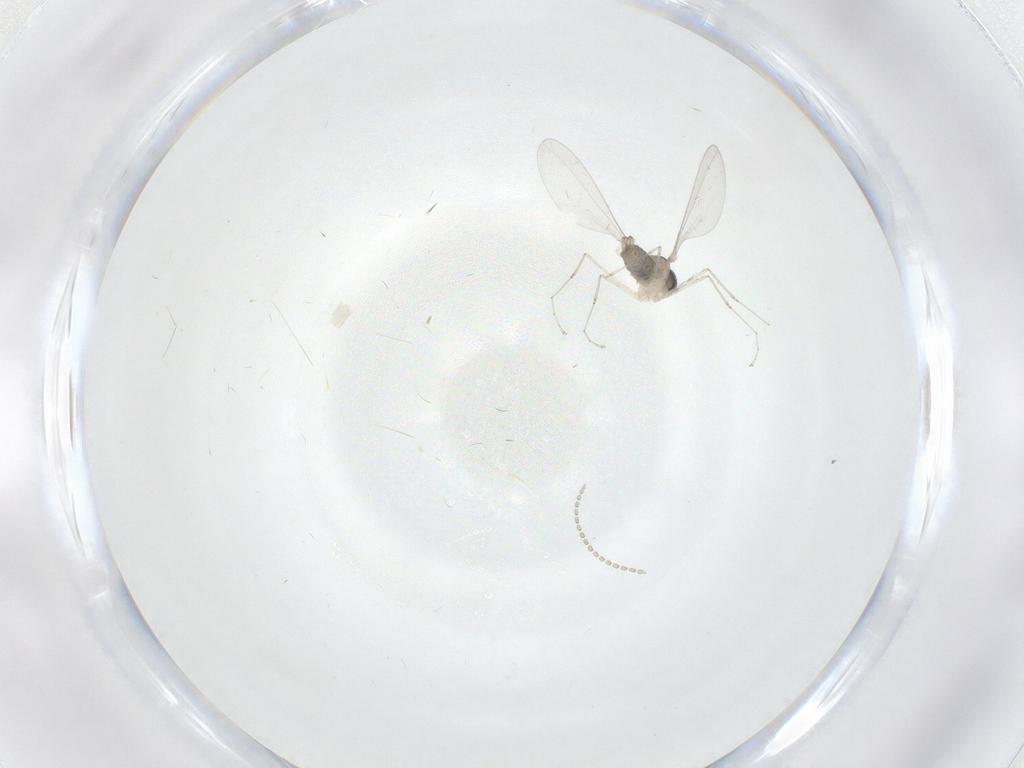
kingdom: Animalia
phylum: Arthropoda
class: Insecta
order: Diptera
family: Cecidomyiidae
